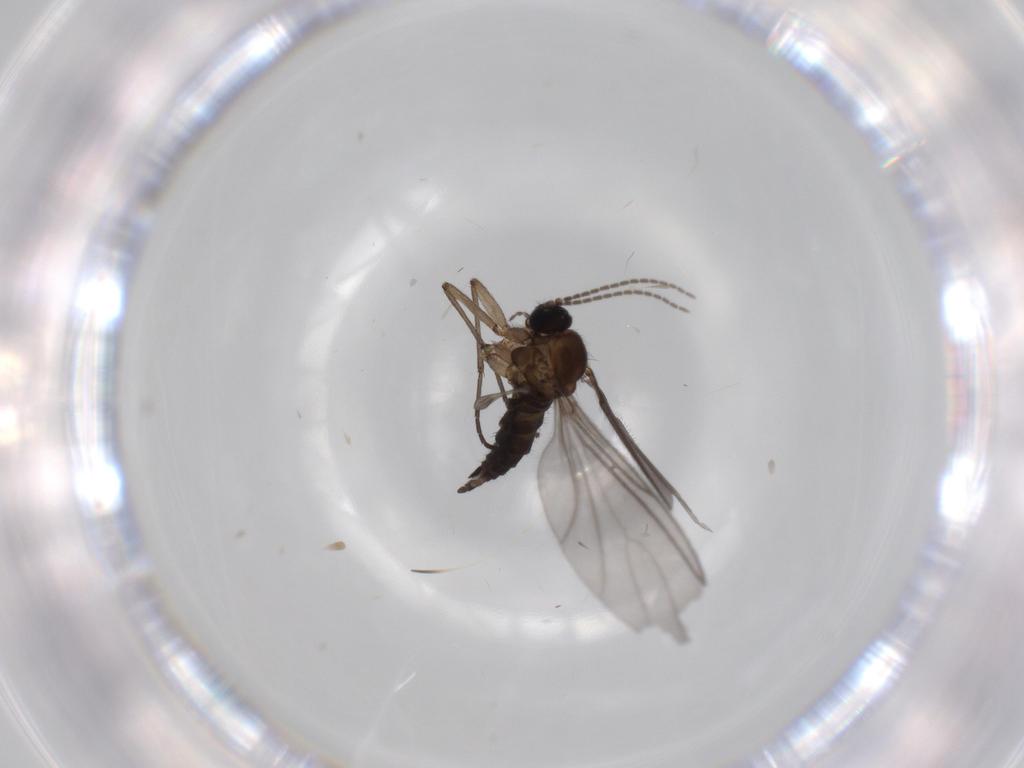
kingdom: Animalia
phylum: Arthropoda
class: Insecta
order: Diptera
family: Sciaridae
